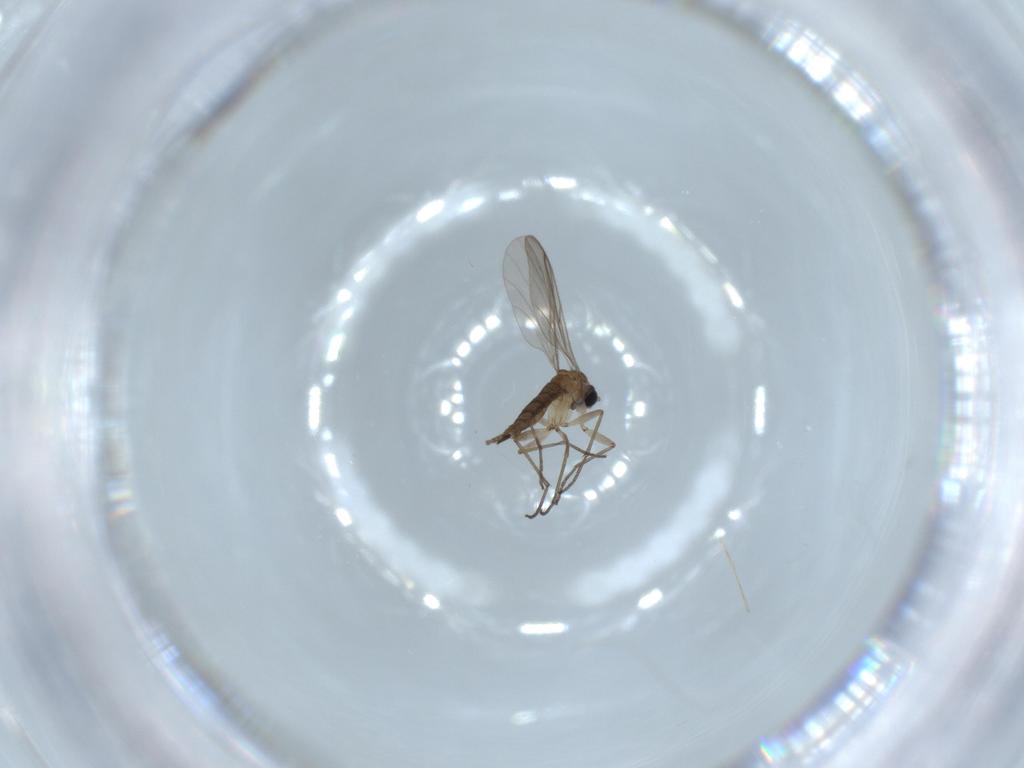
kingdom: Animalia
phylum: Arthropoda
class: Insecta
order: Diptera
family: Sciaridae
